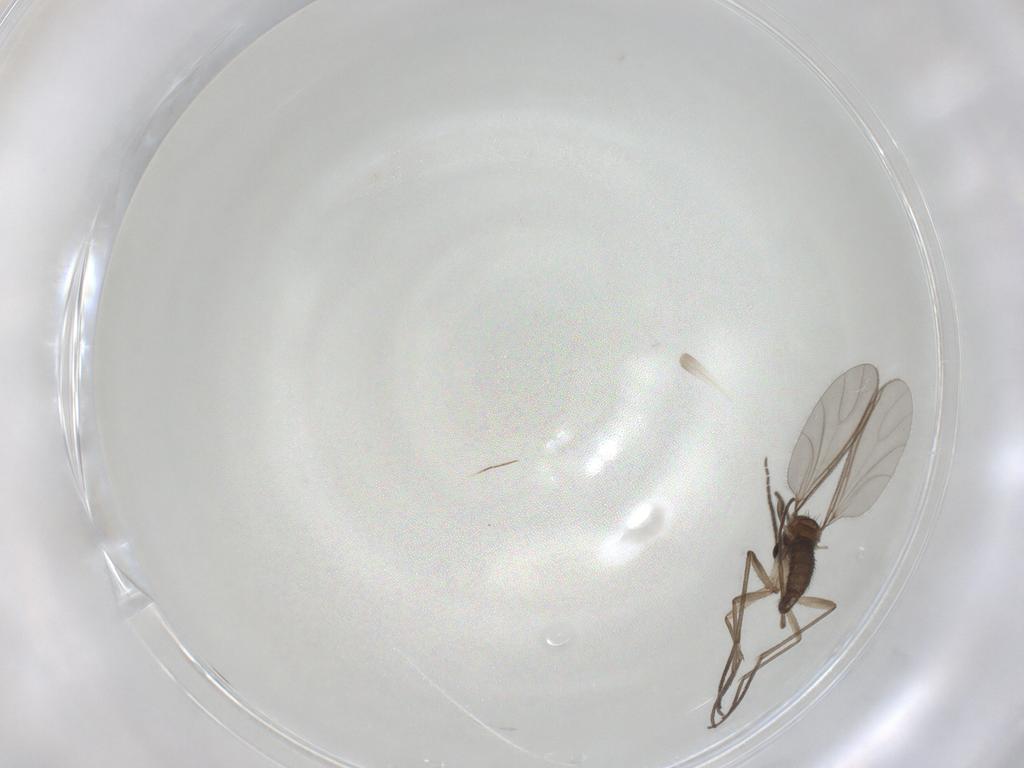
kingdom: Animalia
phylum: Arthropoda
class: Insecta
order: Diptera
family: Sciaridae
